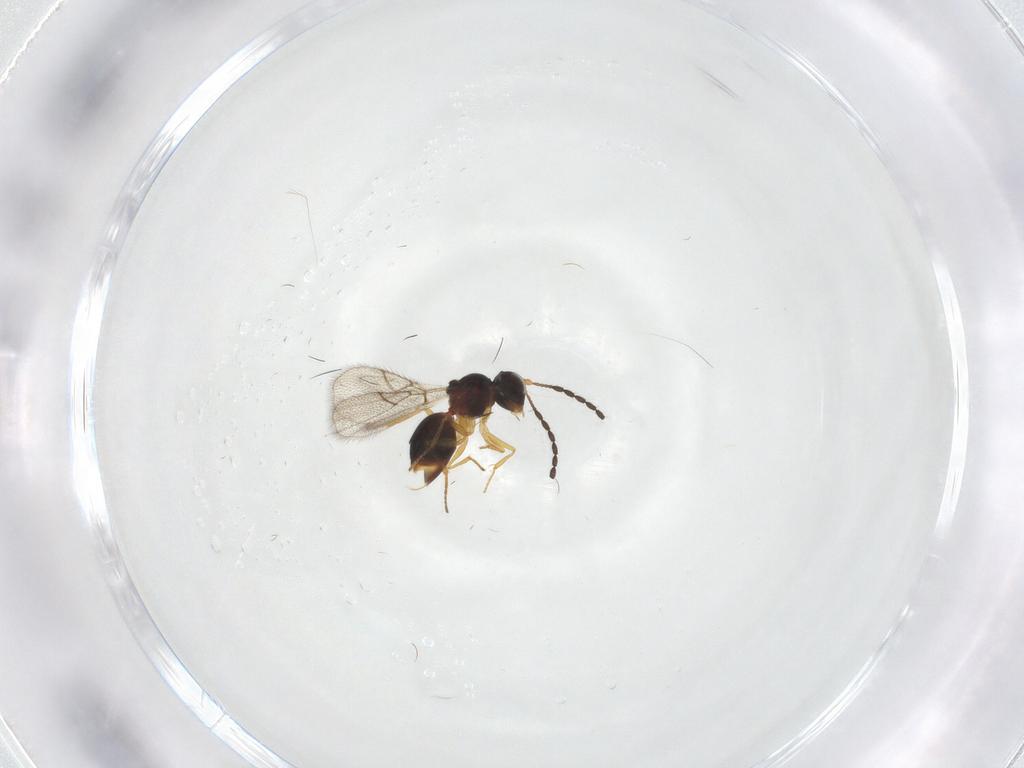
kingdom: Animalia
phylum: Arthropoda
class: Insecta
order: Hymenoptera
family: Figitidae
